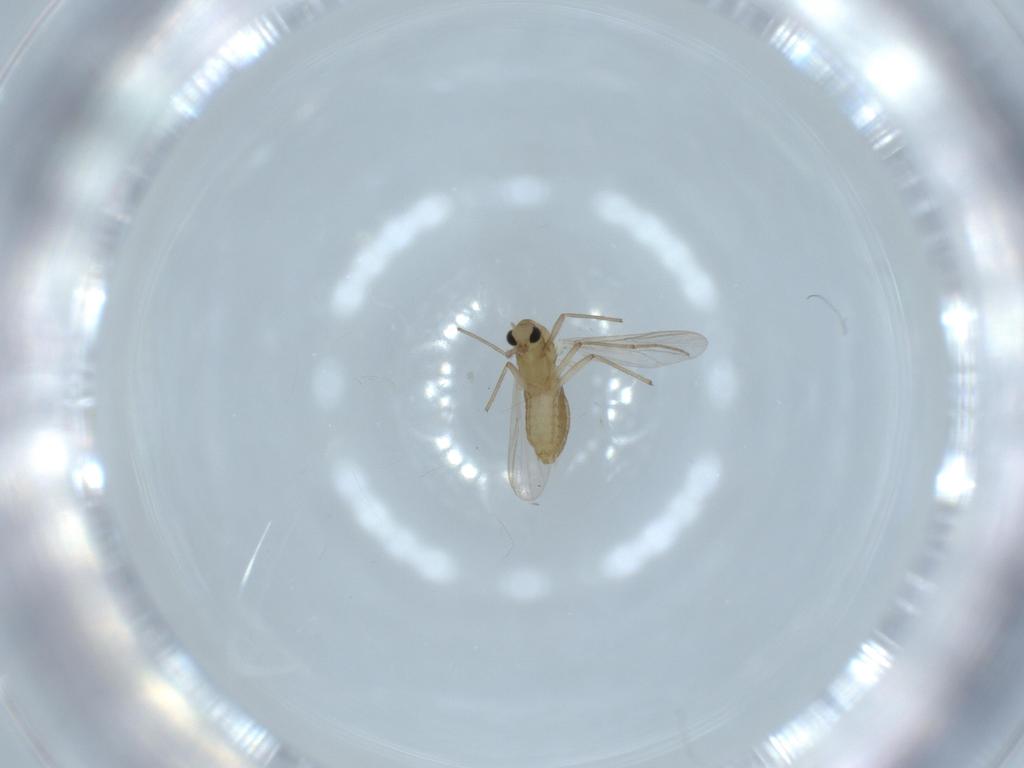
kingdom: Animalia
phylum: Arthropoda
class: Insecta
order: Diptera
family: Chironomidae
